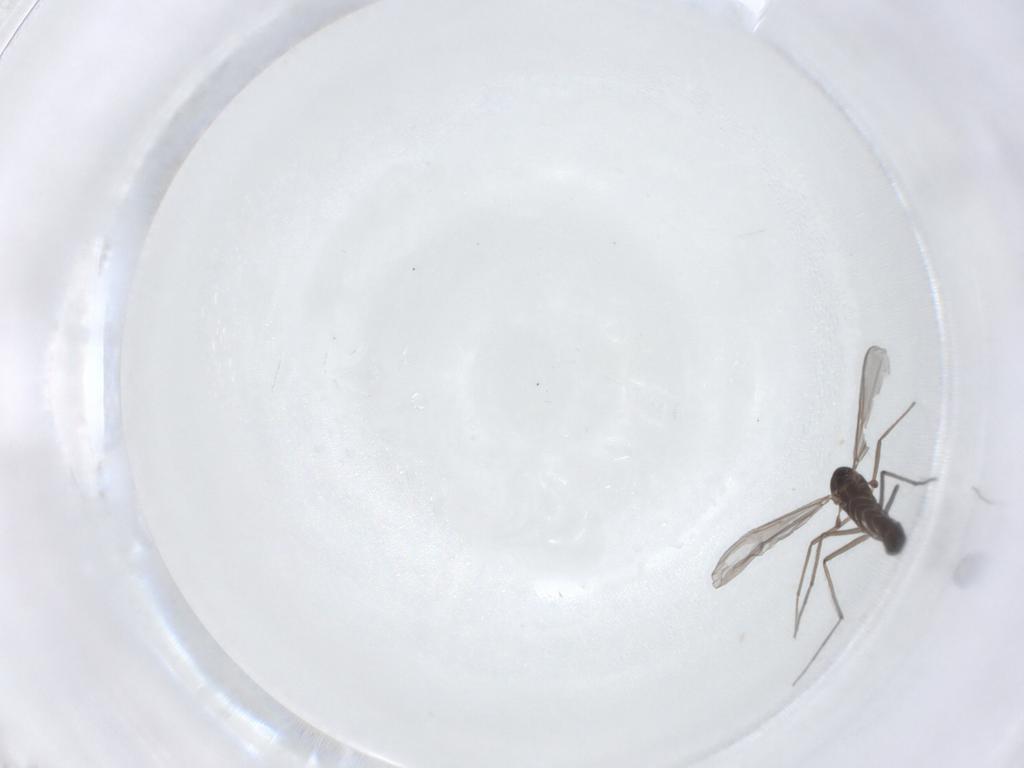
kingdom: Animalia
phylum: Arthropoda
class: Insecta
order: Diptera
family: Chironomidae
